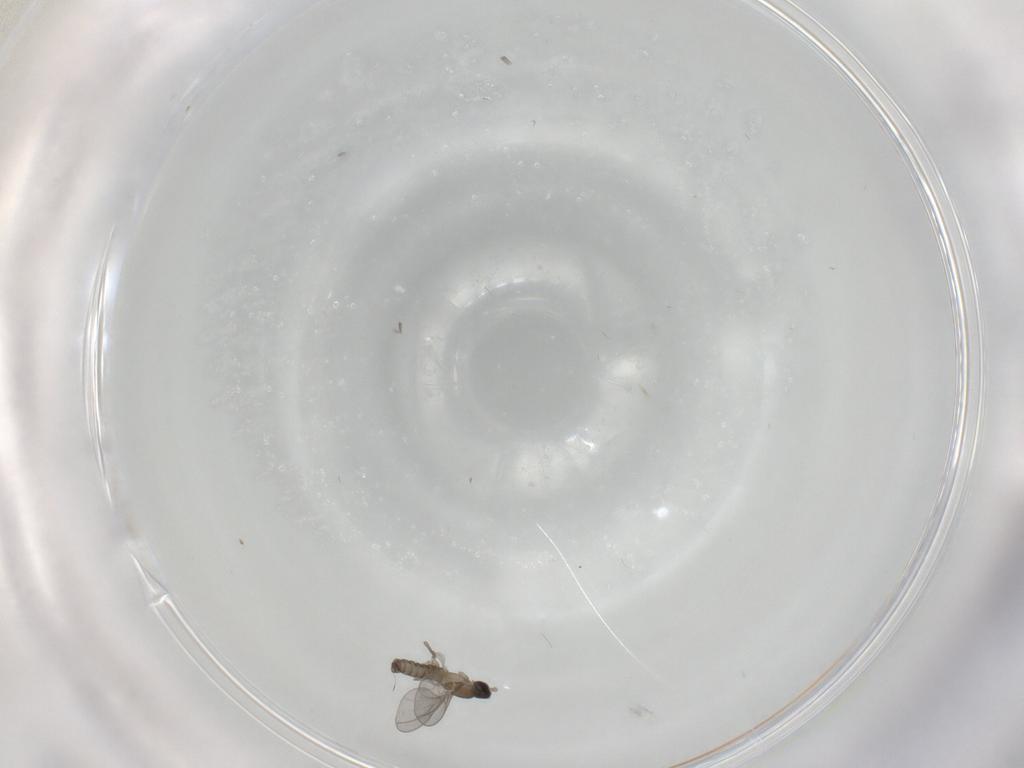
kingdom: Animalia
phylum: Arthropoda
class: Insecta
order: Diptera
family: Cecidomyiidae
